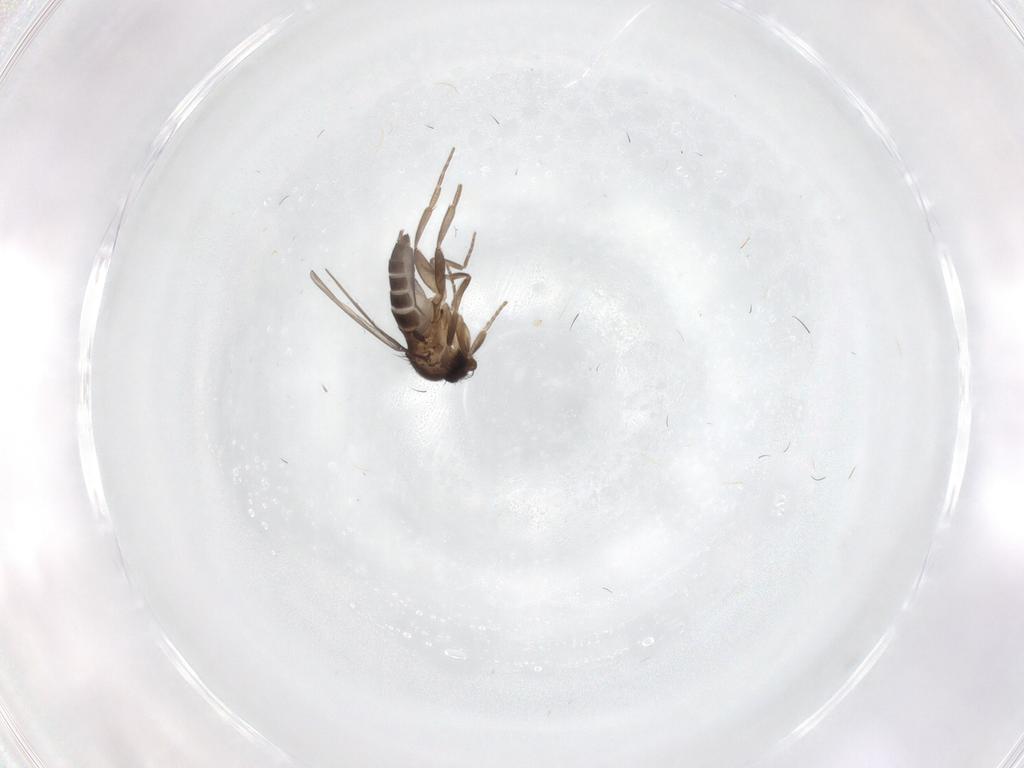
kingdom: Animalia
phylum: Arthropoda
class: Insecta
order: Diptera
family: Phoridae
